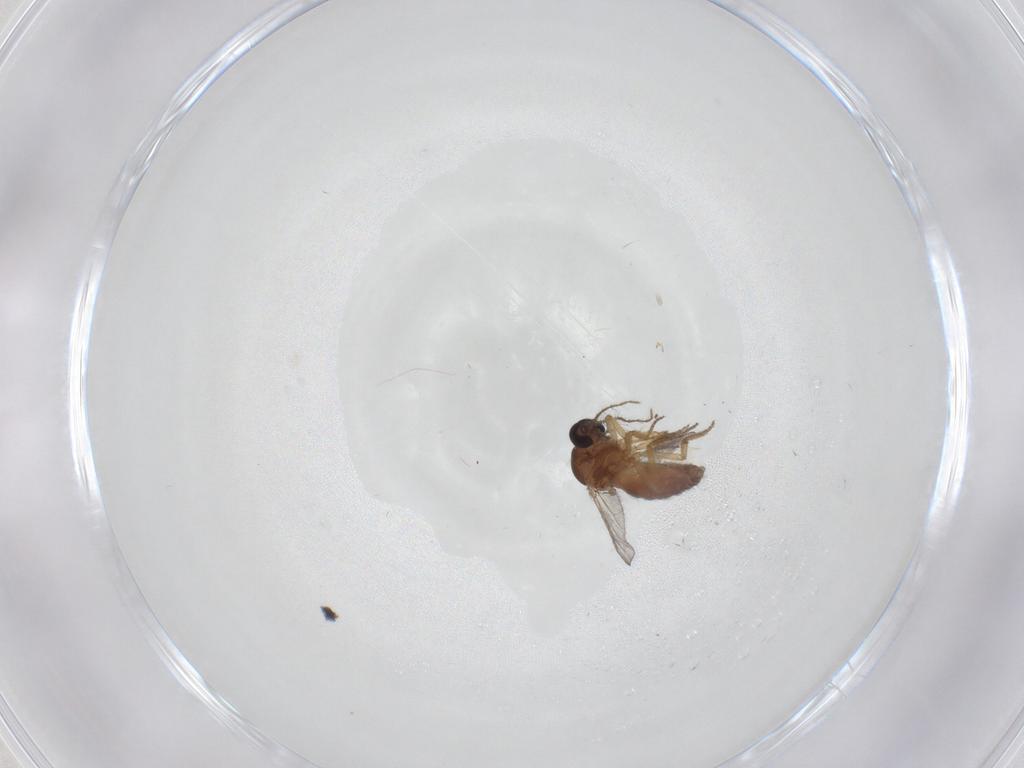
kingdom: Animalia
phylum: Arthropoda
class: Insecta
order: Diptera
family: Ceratopogonidae
